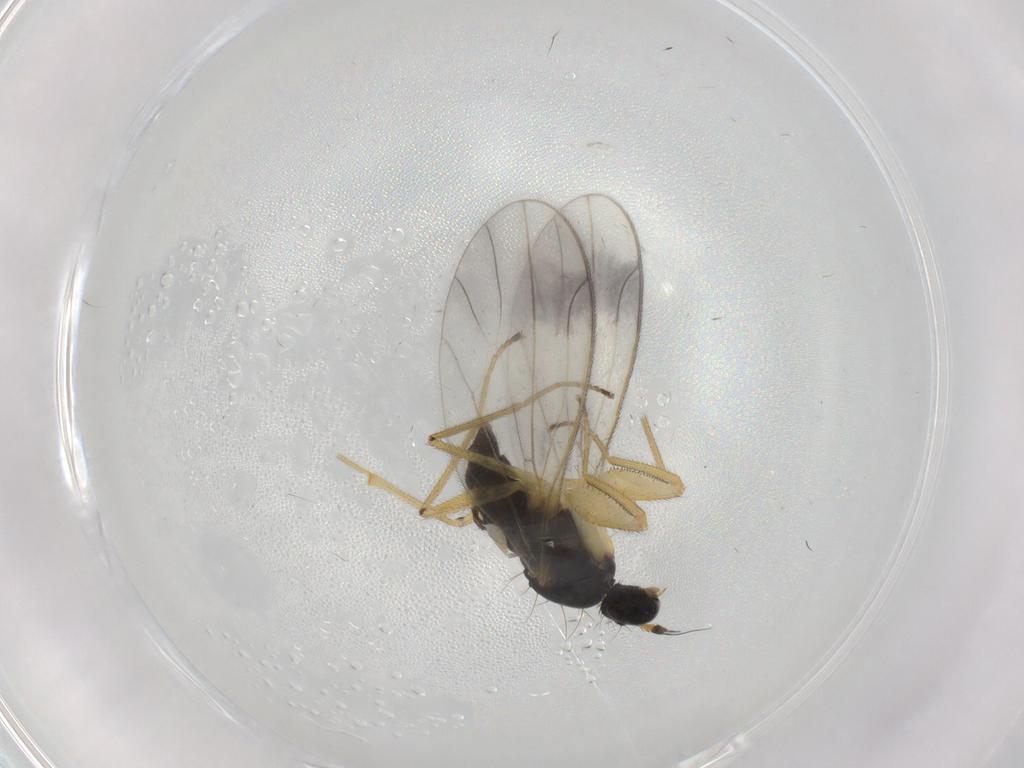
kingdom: Animalia
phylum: Arthropoda
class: Insecta
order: Diptera
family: Empididae
